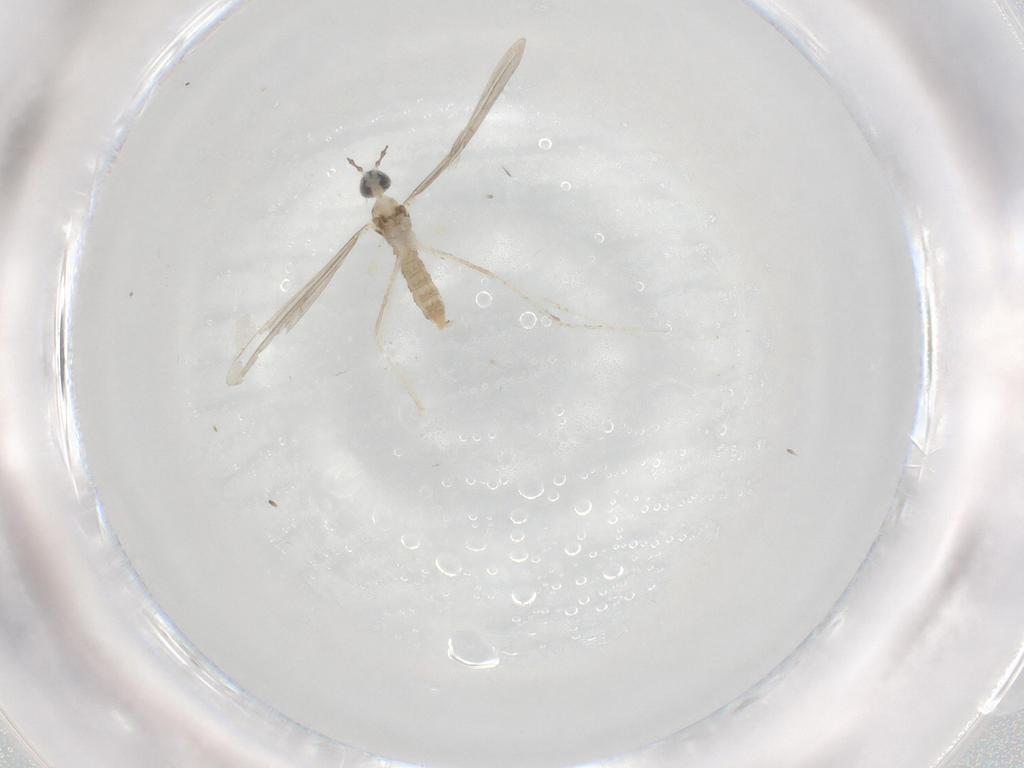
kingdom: Animalia
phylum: Arthropoda
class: Insecta
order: Diptera
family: Cecidomyiidae
